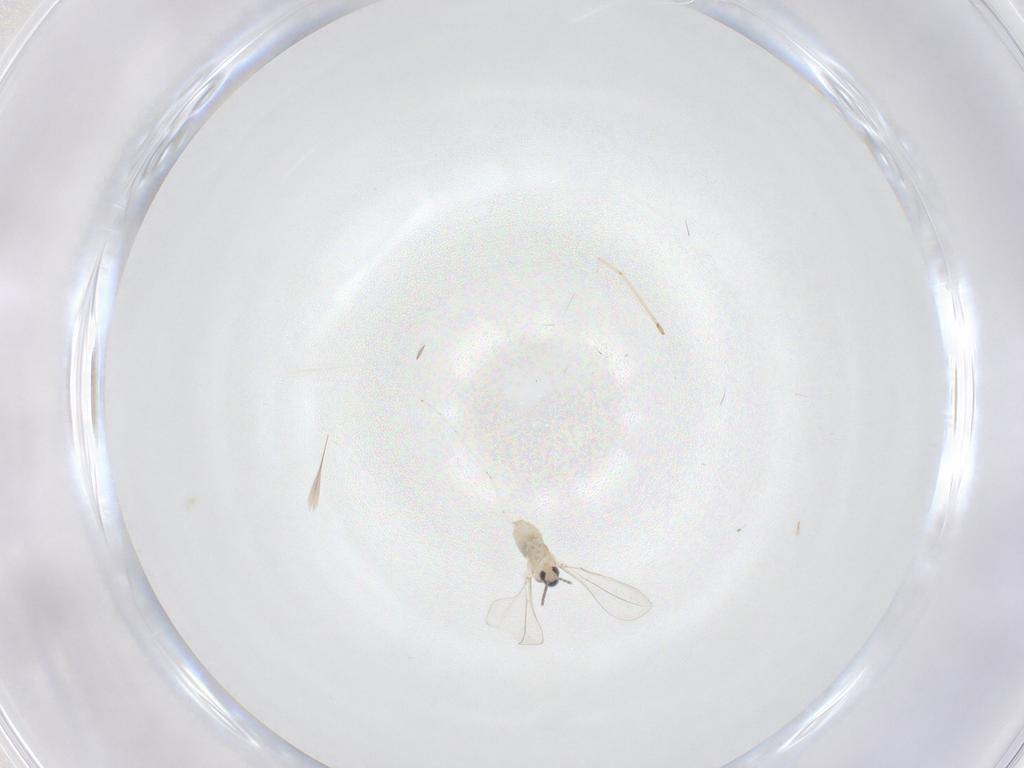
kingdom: Animalia
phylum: Arthropoda
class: Insecta
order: Diptera
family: Cecidomyiidae
